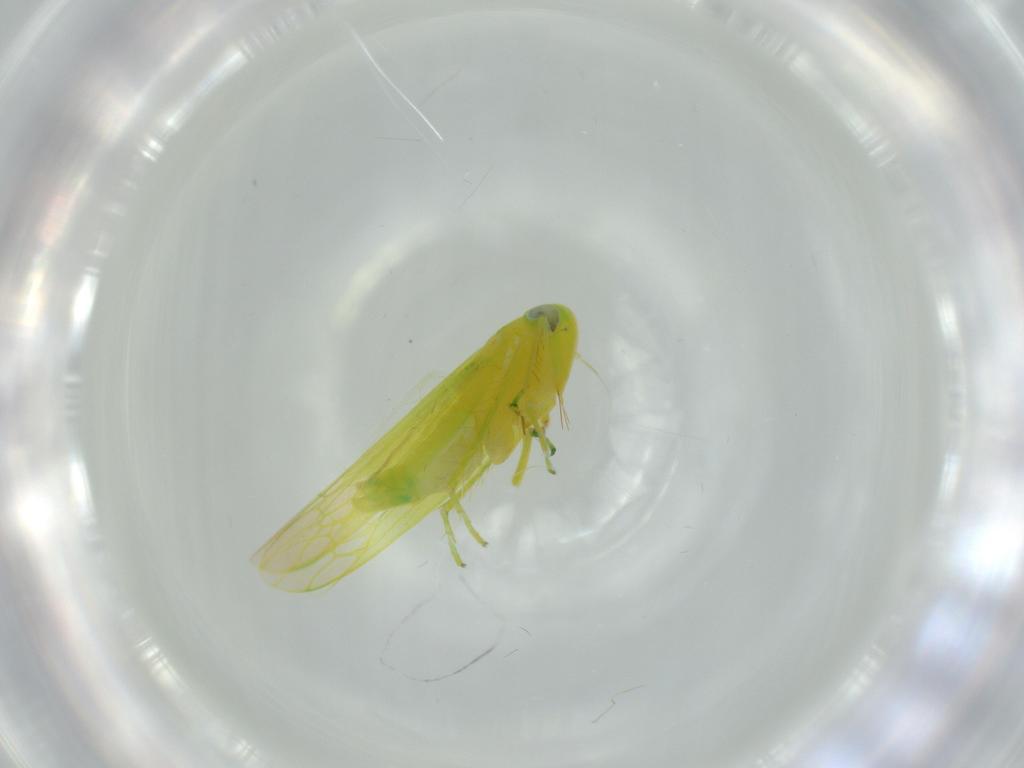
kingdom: Animalia
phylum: Arthropoda
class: Insecta
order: Hemiptera
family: Cicadellidae
